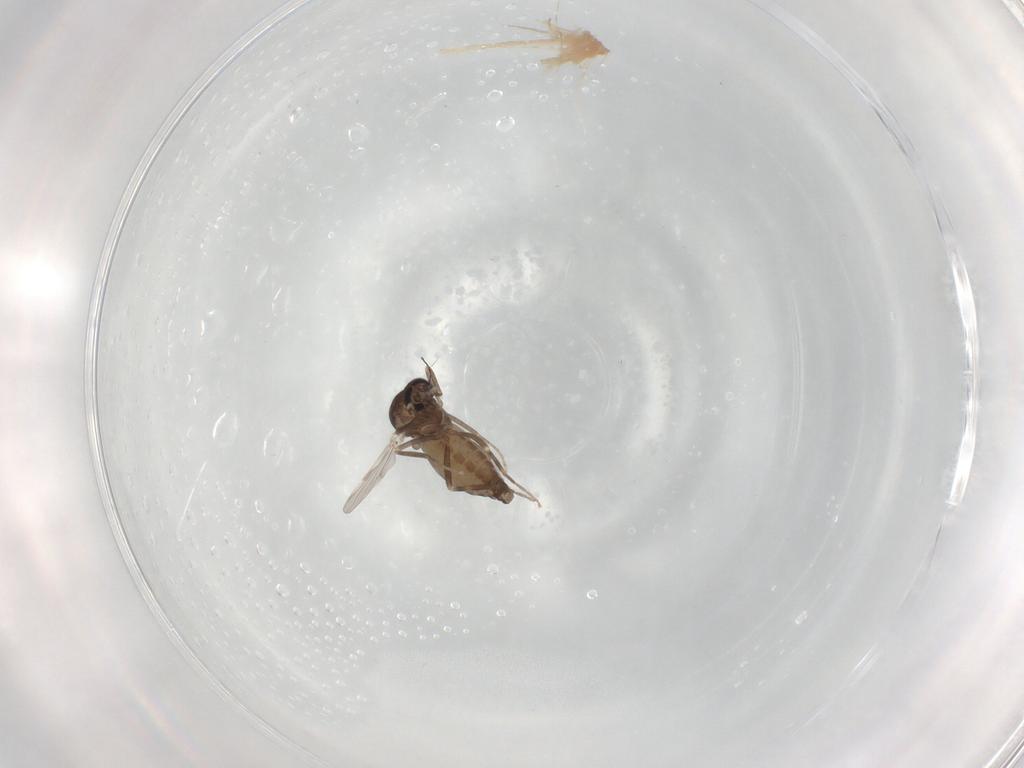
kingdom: Animalia
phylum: Arthropoda
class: Insecta
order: Diptera
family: Ceratopogonidae
